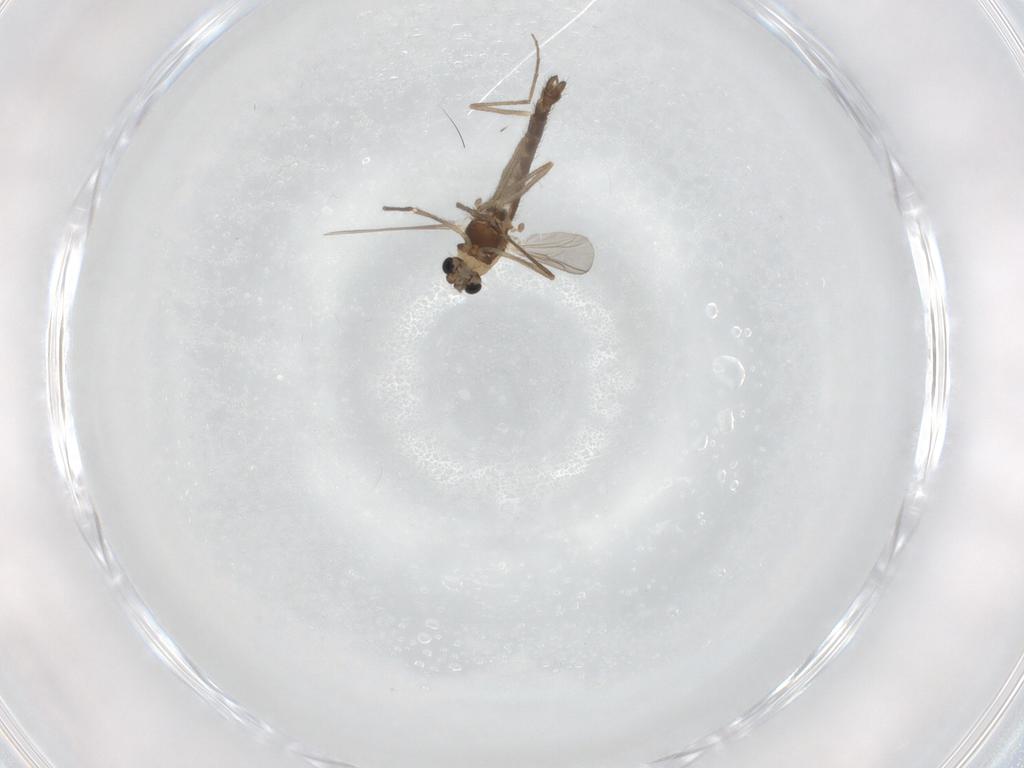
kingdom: Animalia
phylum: Arthropoda
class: Insecta
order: Diptera
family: Chironomidae
